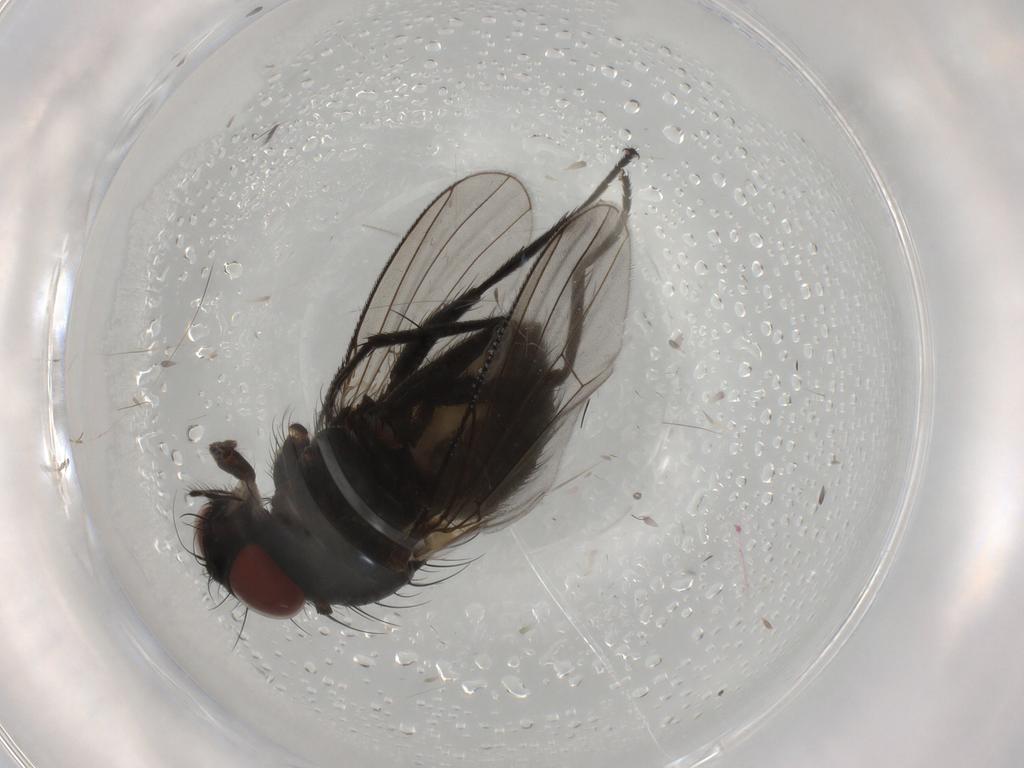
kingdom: Animalia
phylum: Arthropoda
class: Insecta
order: Diptera
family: Muscidae
